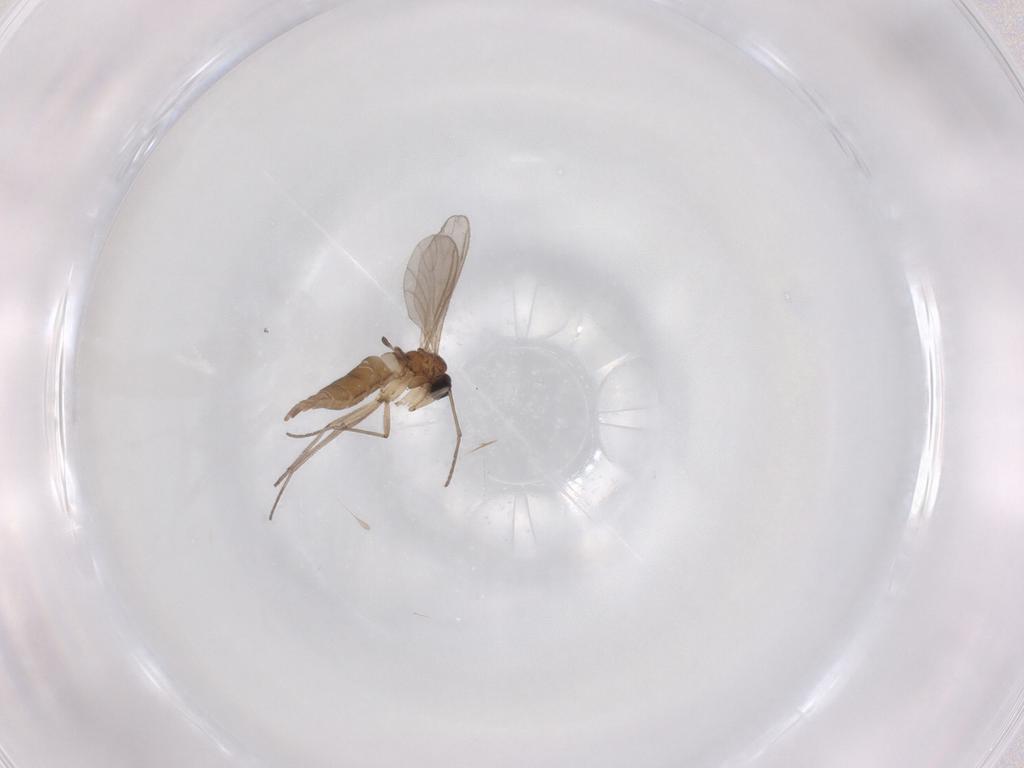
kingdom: Animalia
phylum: Arthropoda
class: Insecta
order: Diptera
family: Sciaridae
